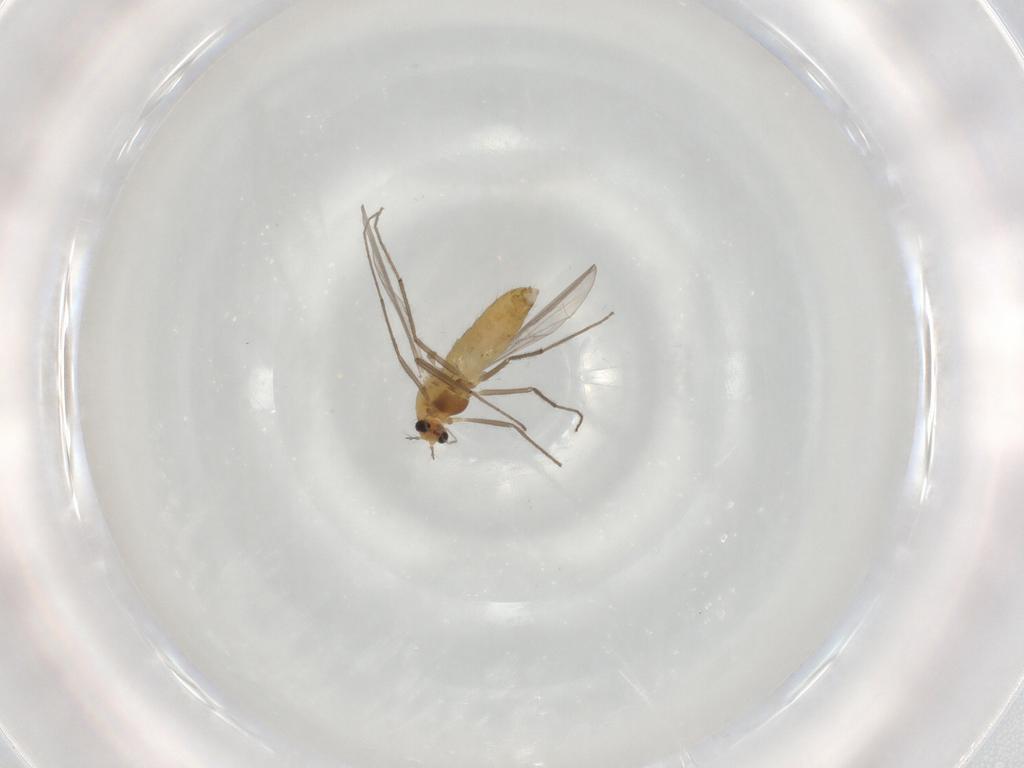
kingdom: Animalia
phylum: Arthropoda
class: Insecta
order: Diptera
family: Chironomidae
